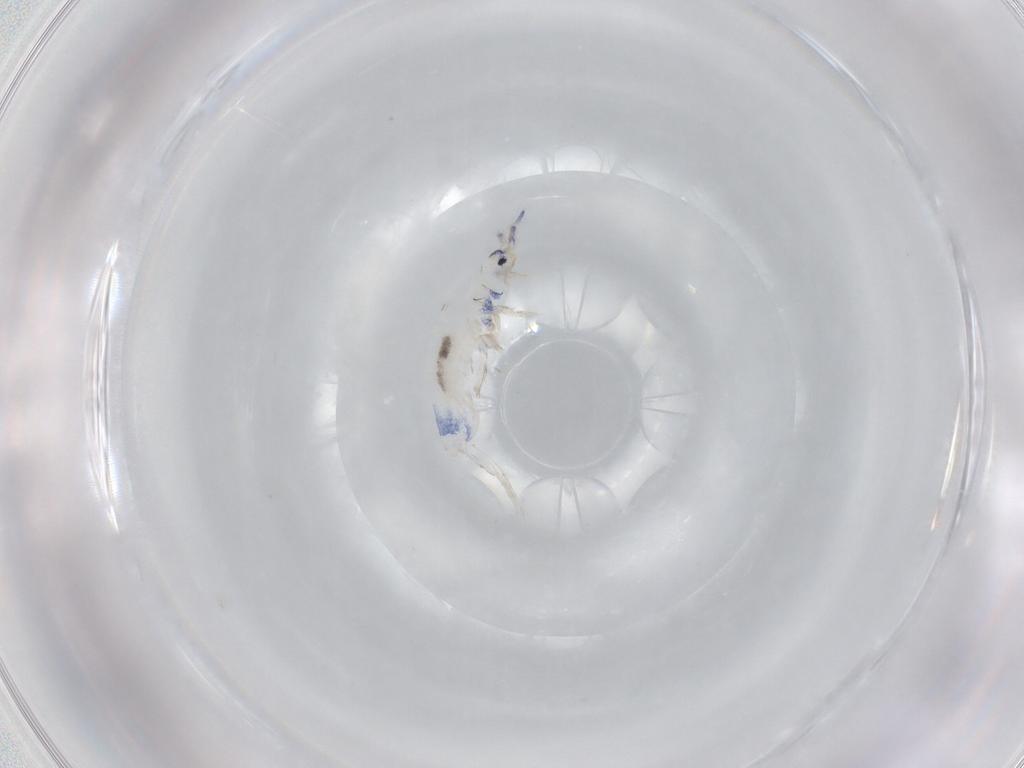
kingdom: Animalia
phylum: Arthropoda
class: Collembola
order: Entomobryomorpha
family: Entomobryidae
